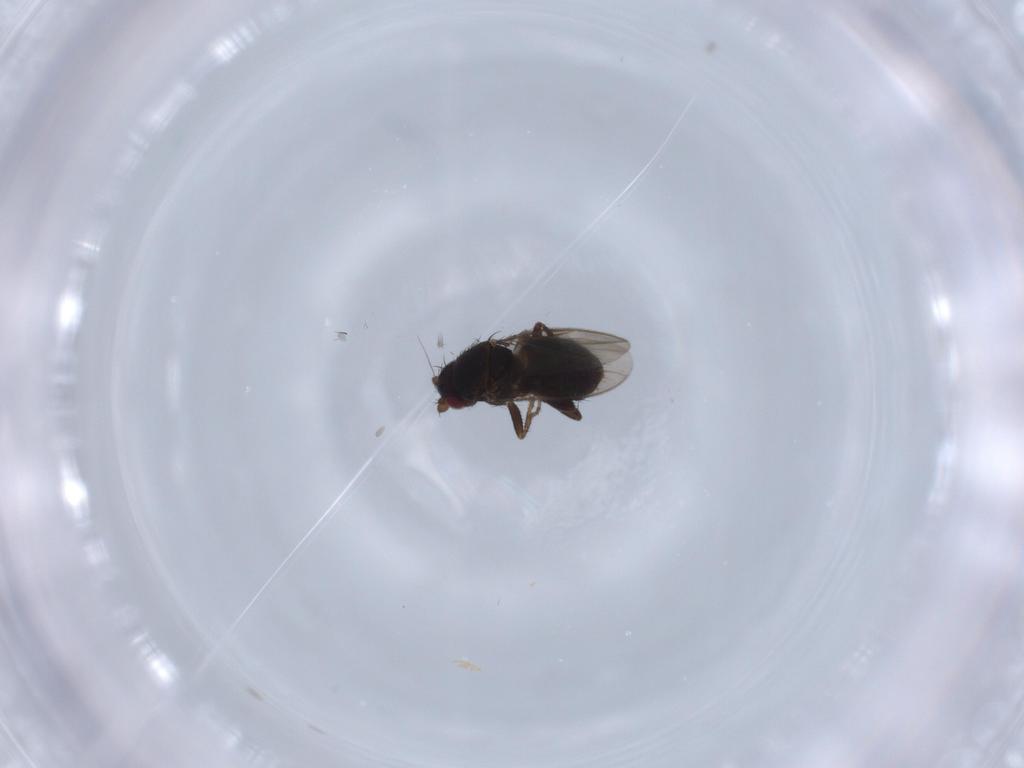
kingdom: Animalia
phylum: Arthropoda
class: Insecta
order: Diptera
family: Sphaeroceridae
